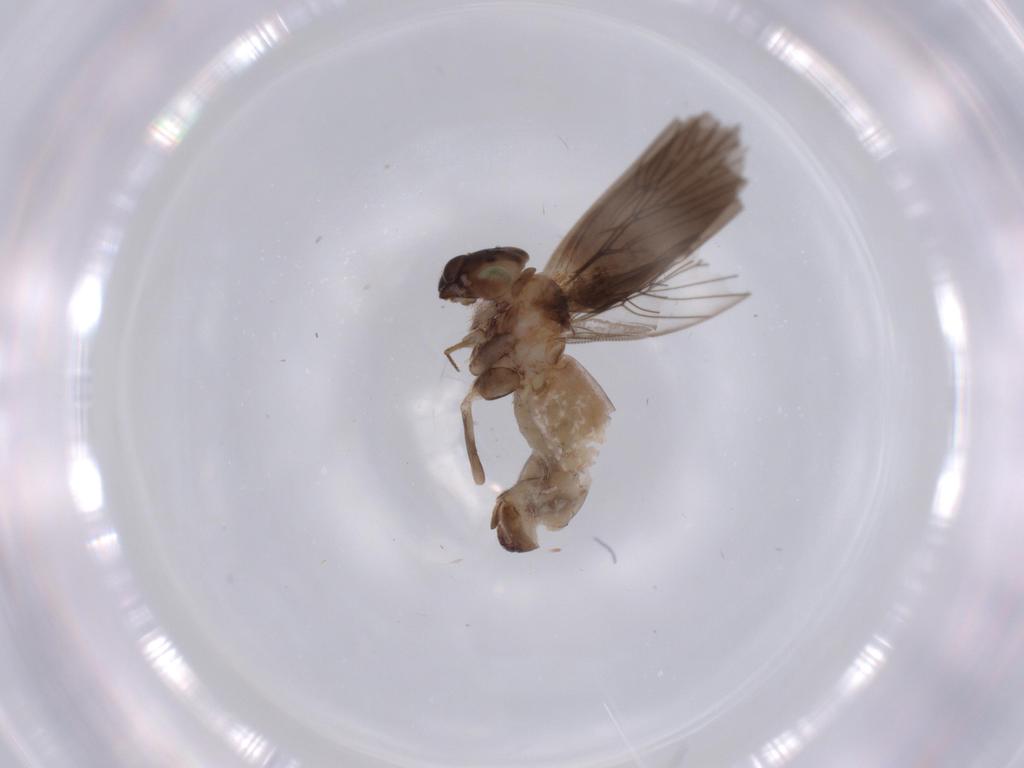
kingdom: Animalia
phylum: Arthropoda
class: Insecta
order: Psocodea
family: Lepidopsocidae
